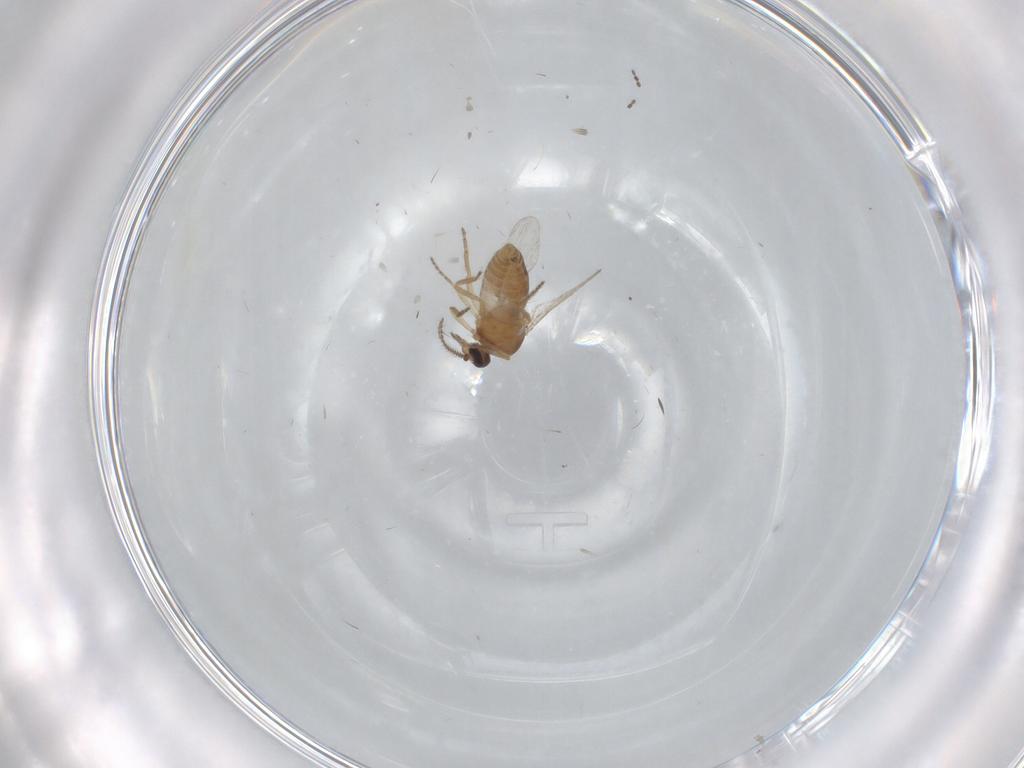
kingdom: Animalia
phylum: Arthropoda
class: Insecta
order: Diptera
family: Ceratopogonidae
